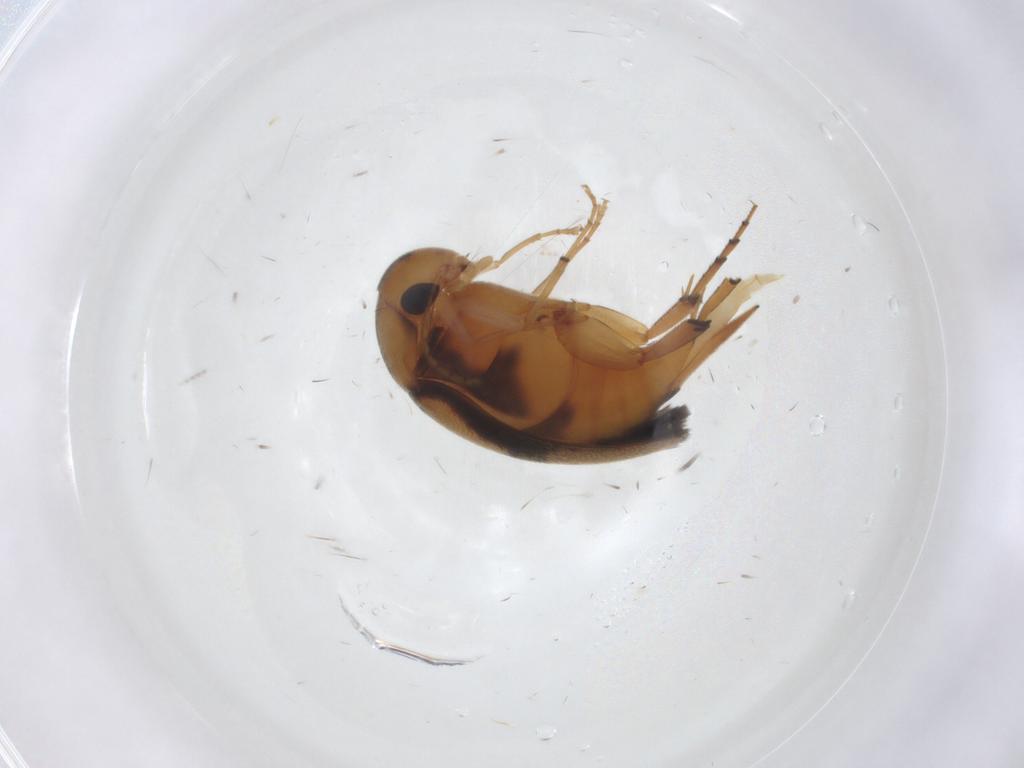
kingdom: Animalia
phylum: Arthropoda
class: Insecta
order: Coleoptera
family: Mordellidae
